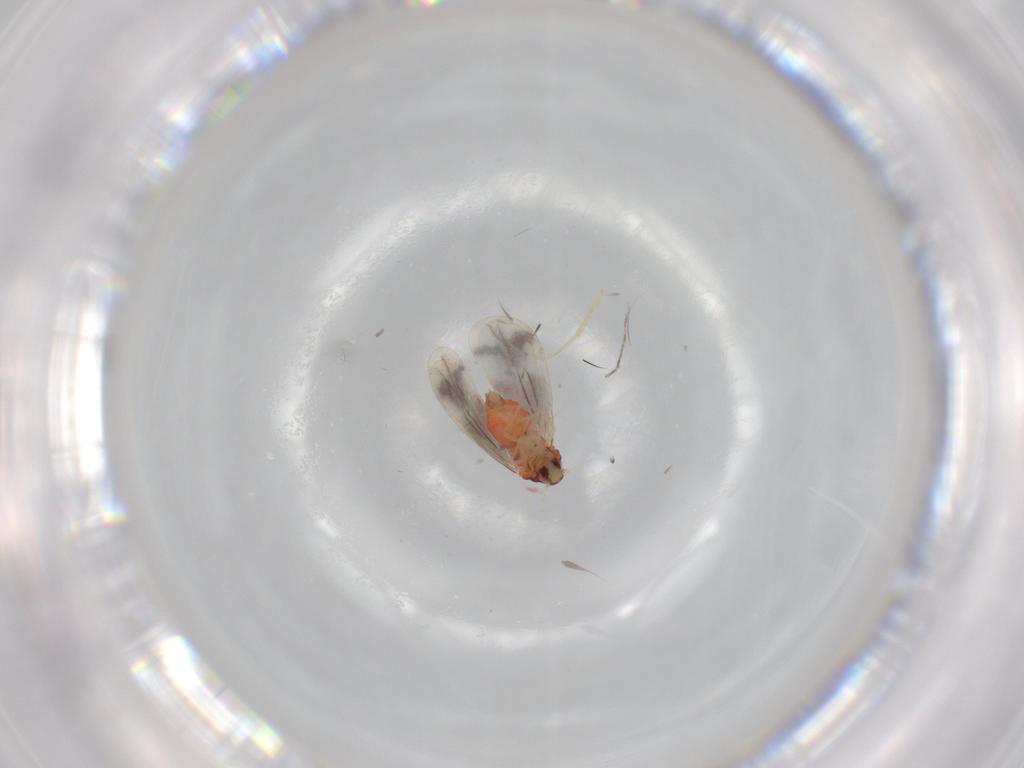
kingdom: Animalia
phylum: Arthropoda
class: Insecta
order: Hemiptera
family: Aleyrodidae
